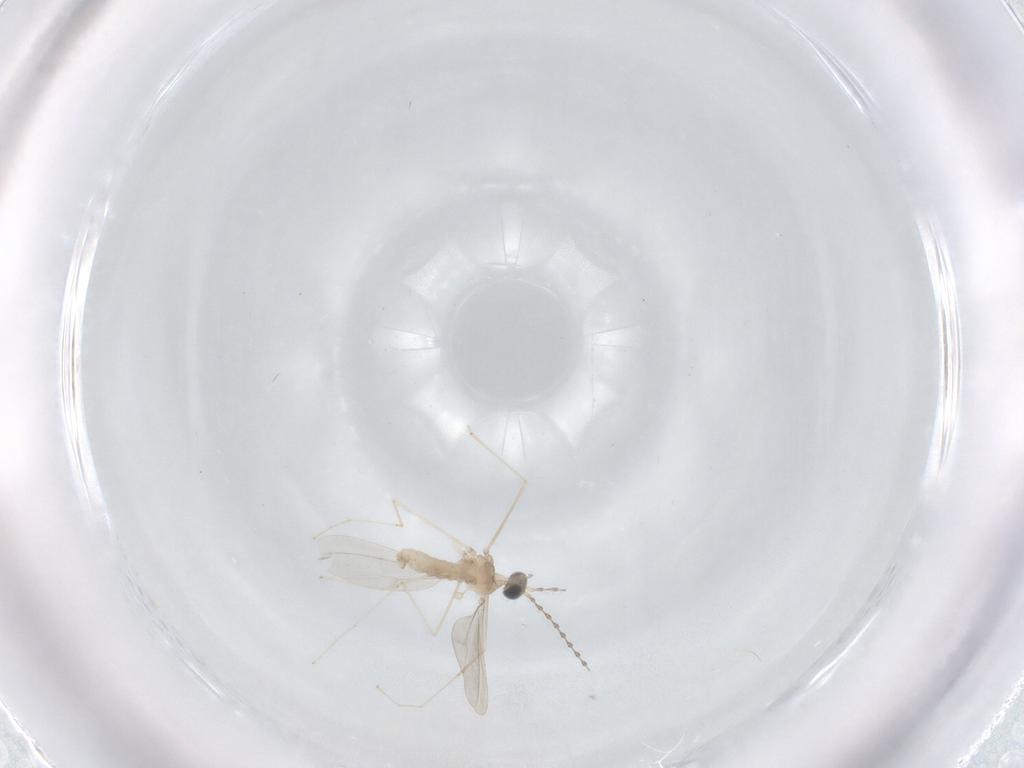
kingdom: Animalia
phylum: Arthropoda
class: Insecta
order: Diptera
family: Cecidomyiidae
